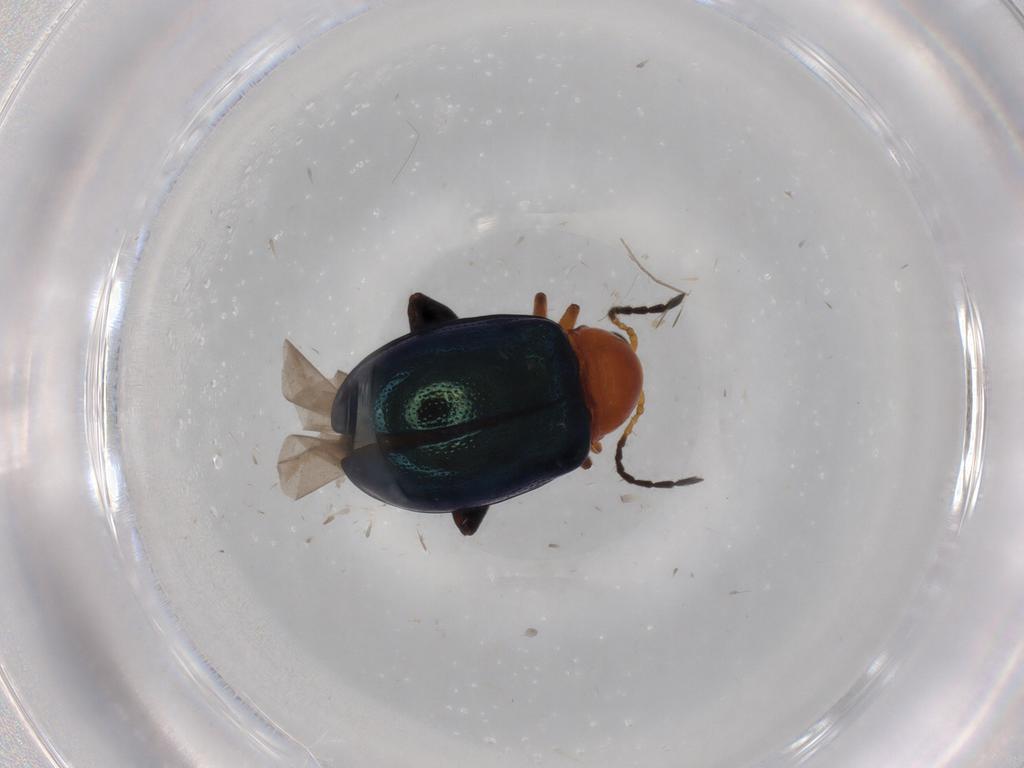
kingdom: Animalia
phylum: Arthropoda
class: Insecta
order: Coleoptera
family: Chrysomelidae
